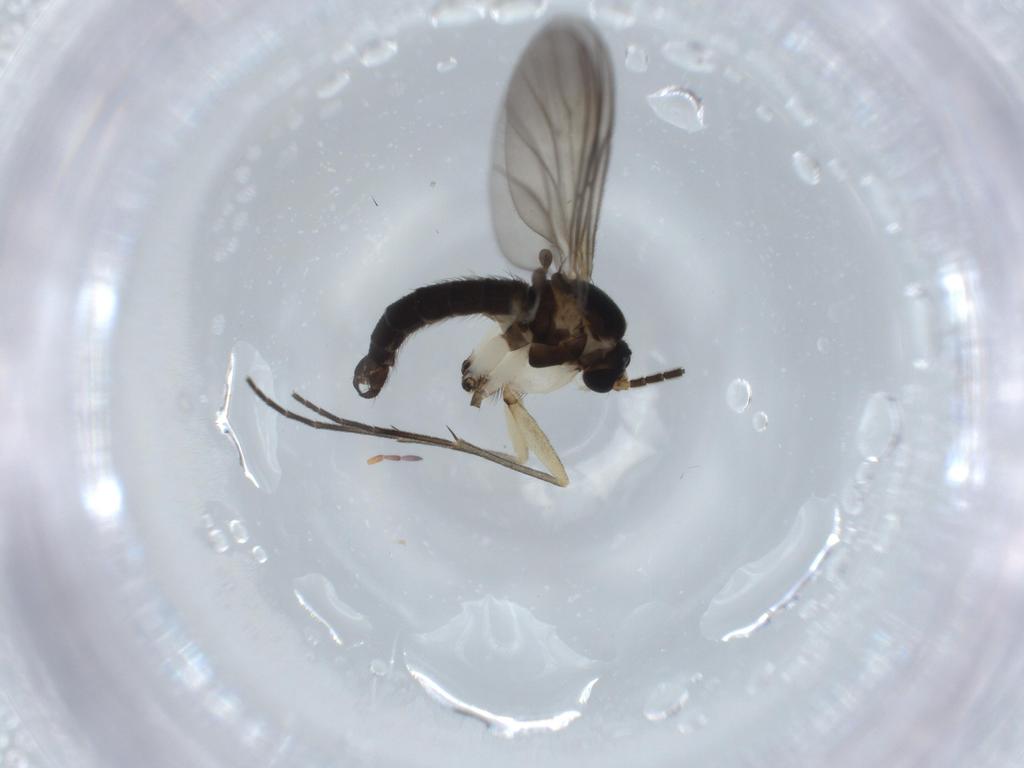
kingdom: Animalia
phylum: Arthropoda
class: Insecta
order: Diptera
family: Sciaridae
